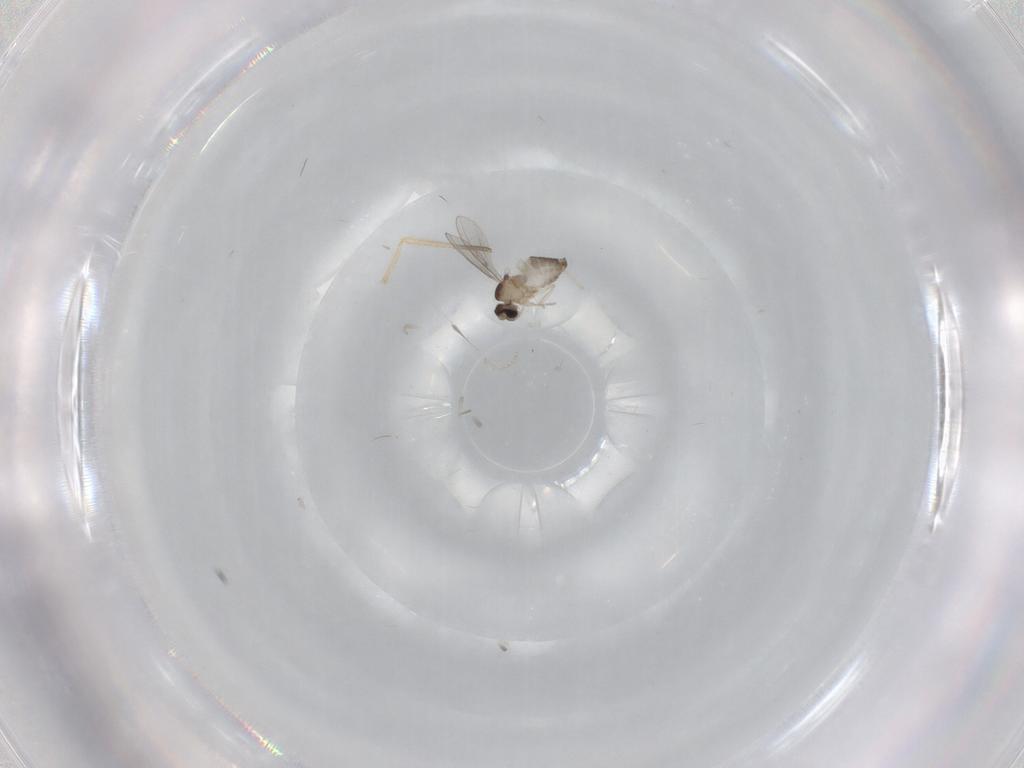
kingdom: Animalia
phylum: Arthropoda
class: Insecta
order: Diptera
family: Cecidomyiidae
